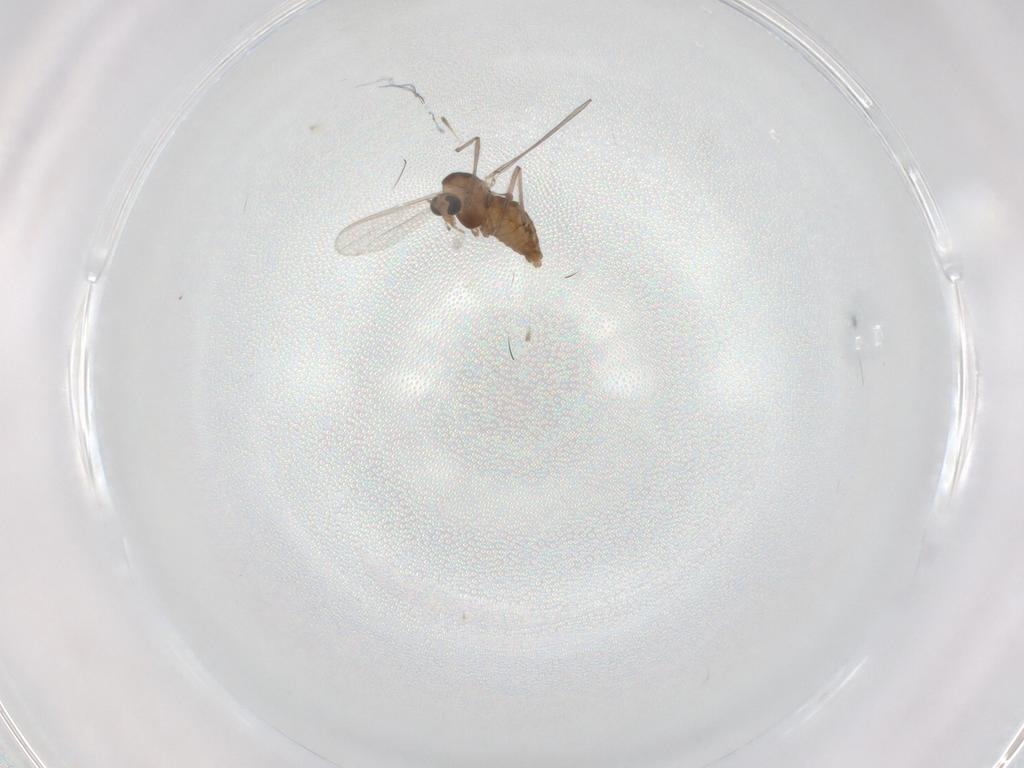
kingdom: Animalia
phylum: Arthropoda
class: Insecta
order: Diptera
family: Chironomidae
